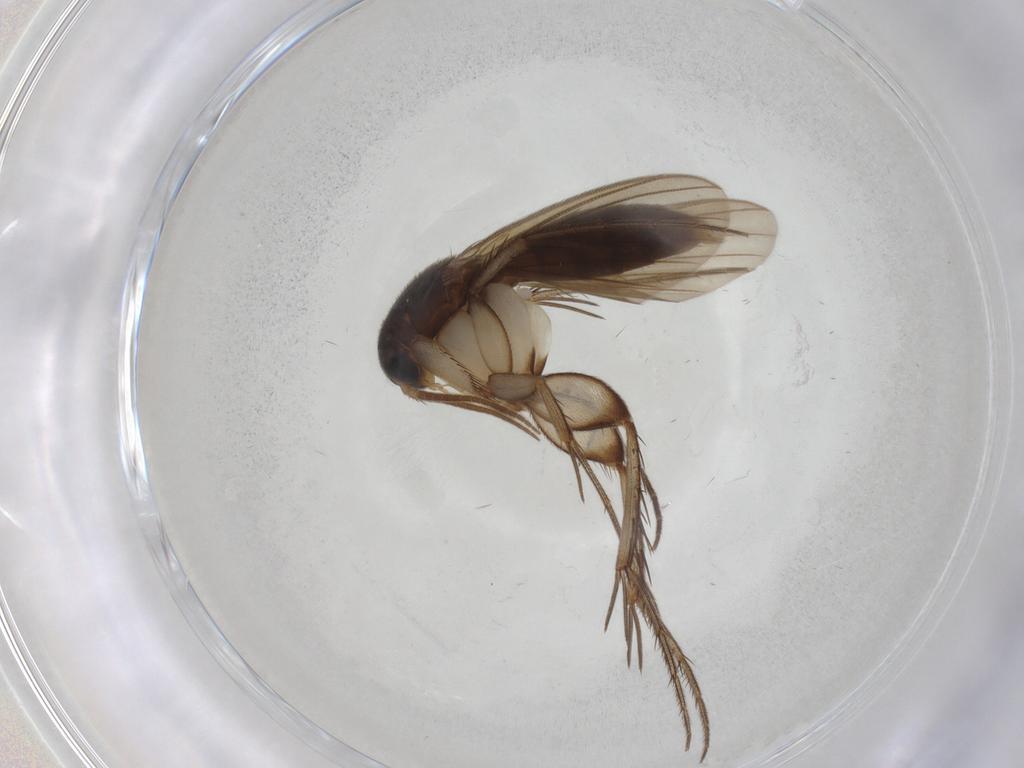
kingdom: Animalia
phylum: Arthropoda
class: Insecta
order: Diptera
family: Mycetophilidae
